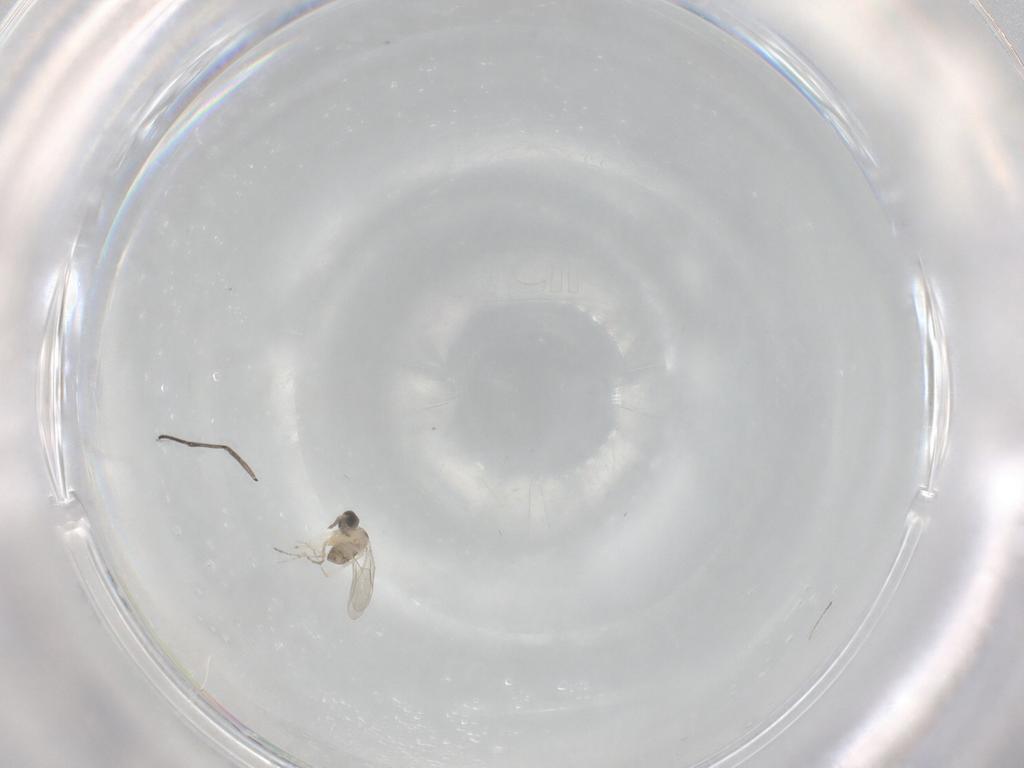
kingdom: Animalia
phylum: Arthropoda
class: Insecta
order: Diptera
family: Cecidomyiidae
